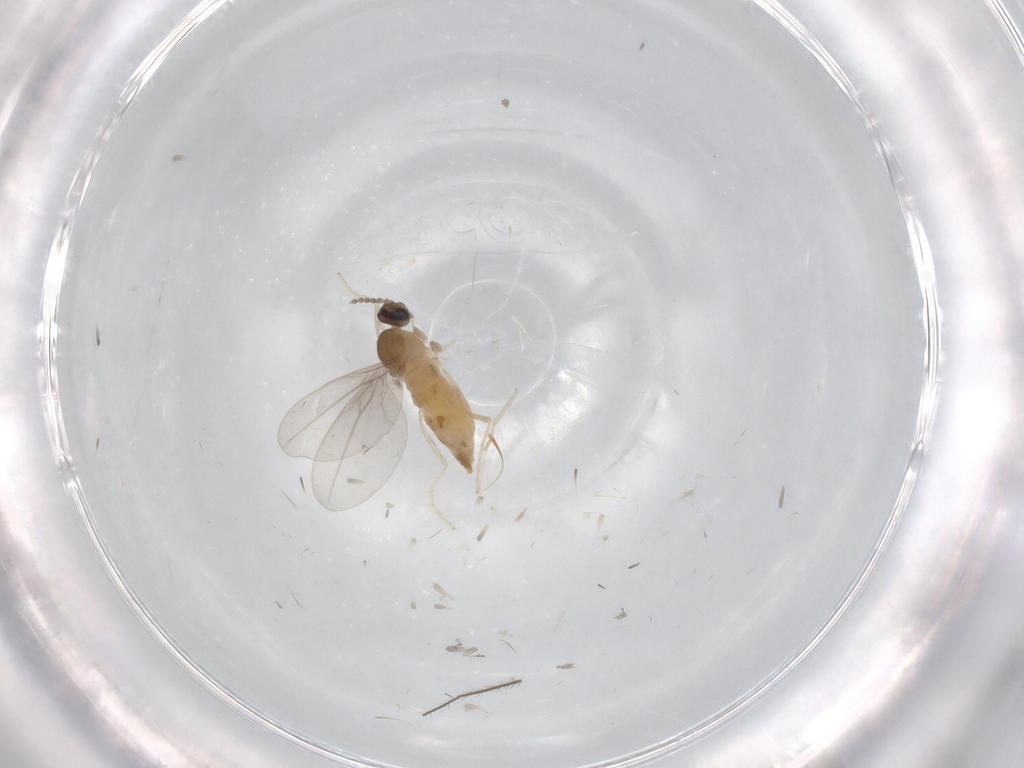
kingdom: Animalia
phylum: Arthropoda
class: Insecta
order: Diptera
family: Cecidomyiidae
